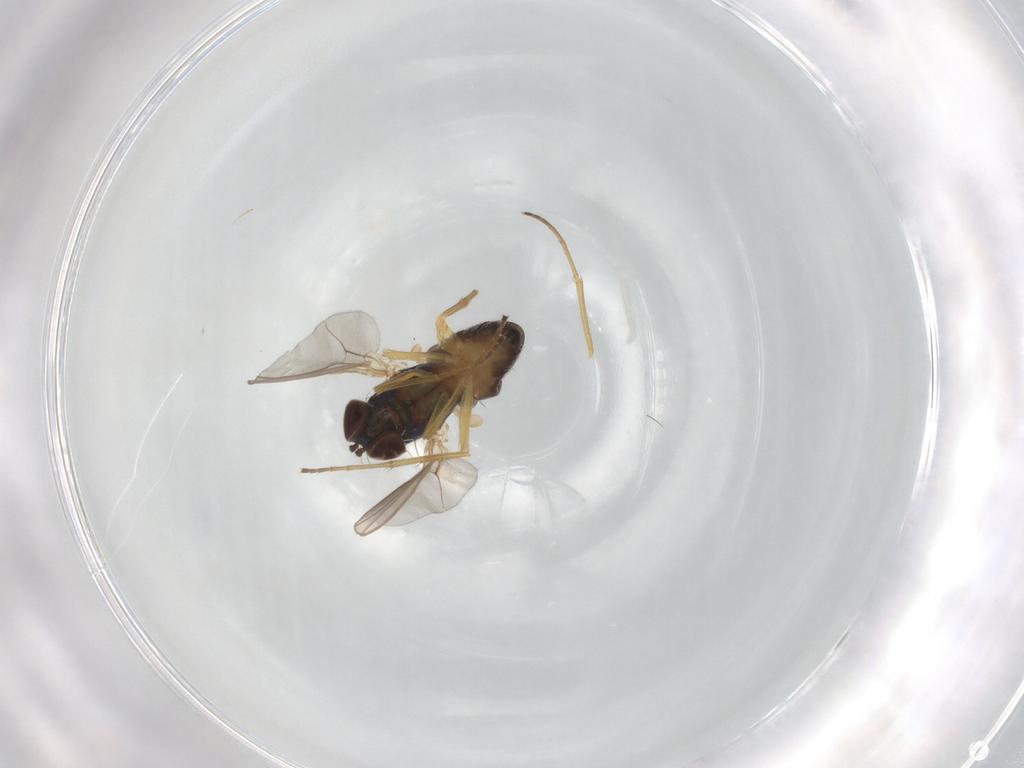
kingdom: Animalia
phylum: Arthropoda
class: Insecta
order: Diptera
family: Dolichopodidae
